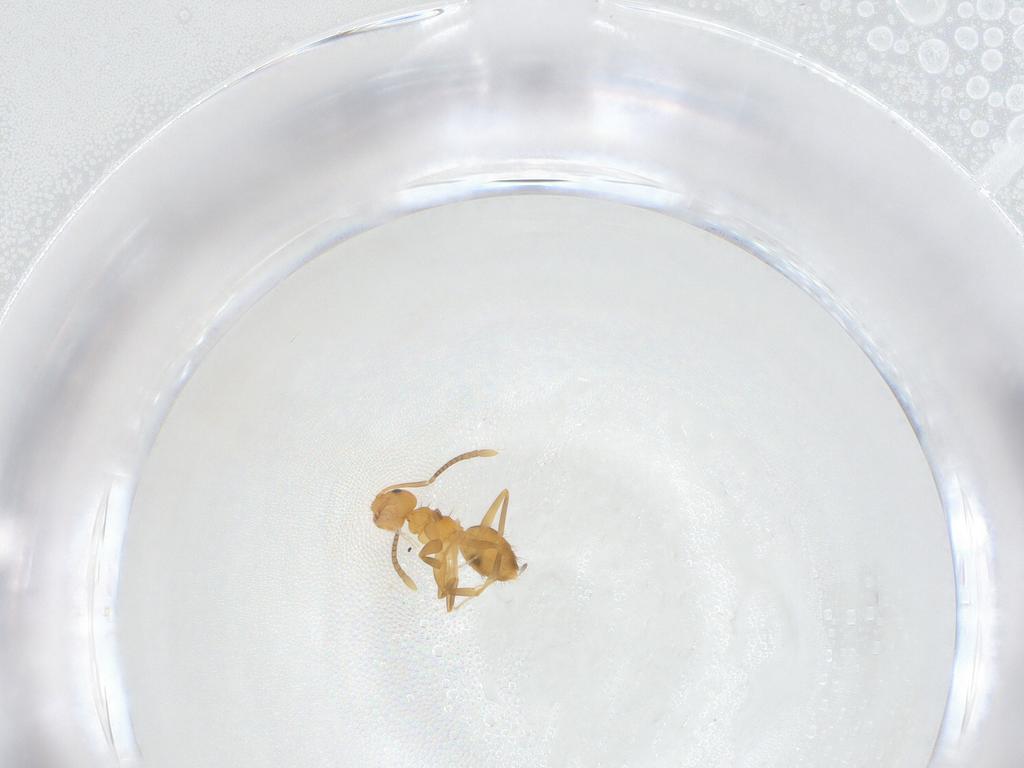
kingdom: Animalia
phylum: Arthropoda
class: Insecta
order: Hymenoptera
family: Formicidae
